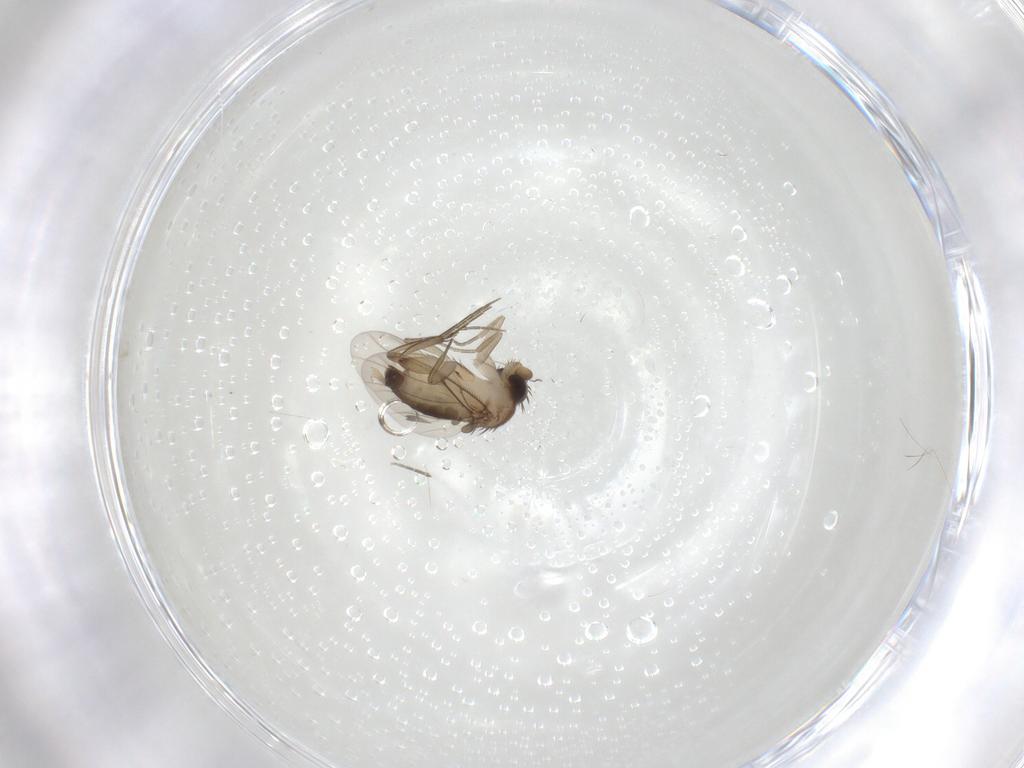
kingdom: Animalia
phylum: Arthropoda
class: Insecta
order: Diptera
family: Phoridae
